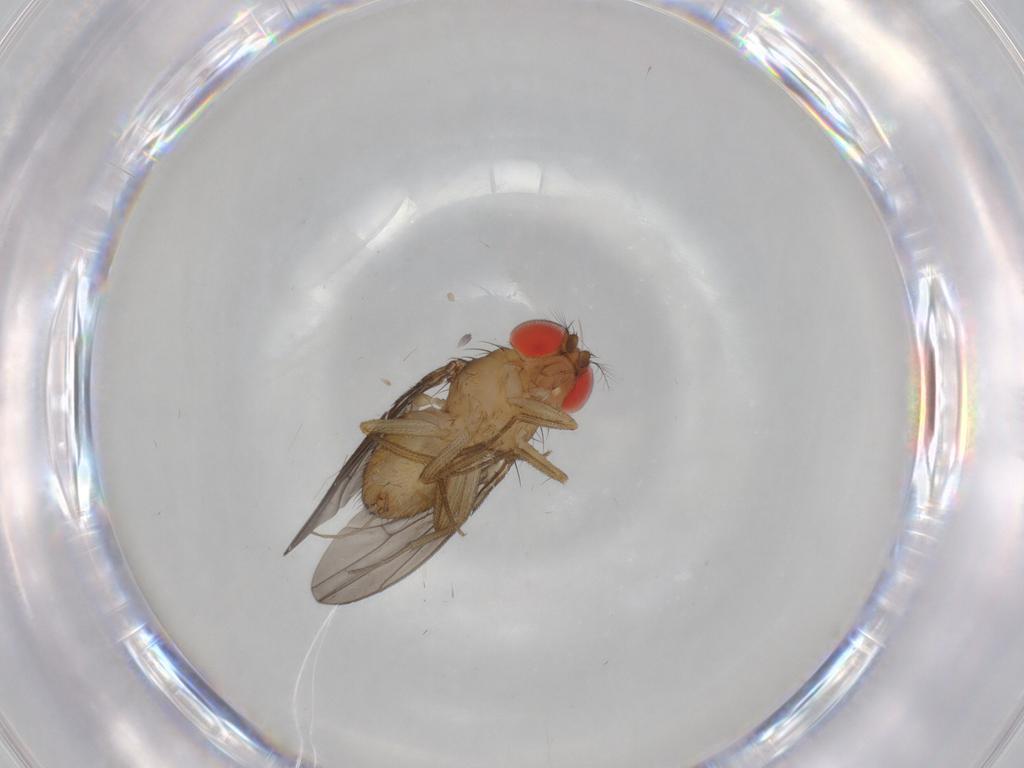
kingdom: Animalia
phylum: Arthropoda
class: Insecta
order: Diptera
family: Drosophilidae
